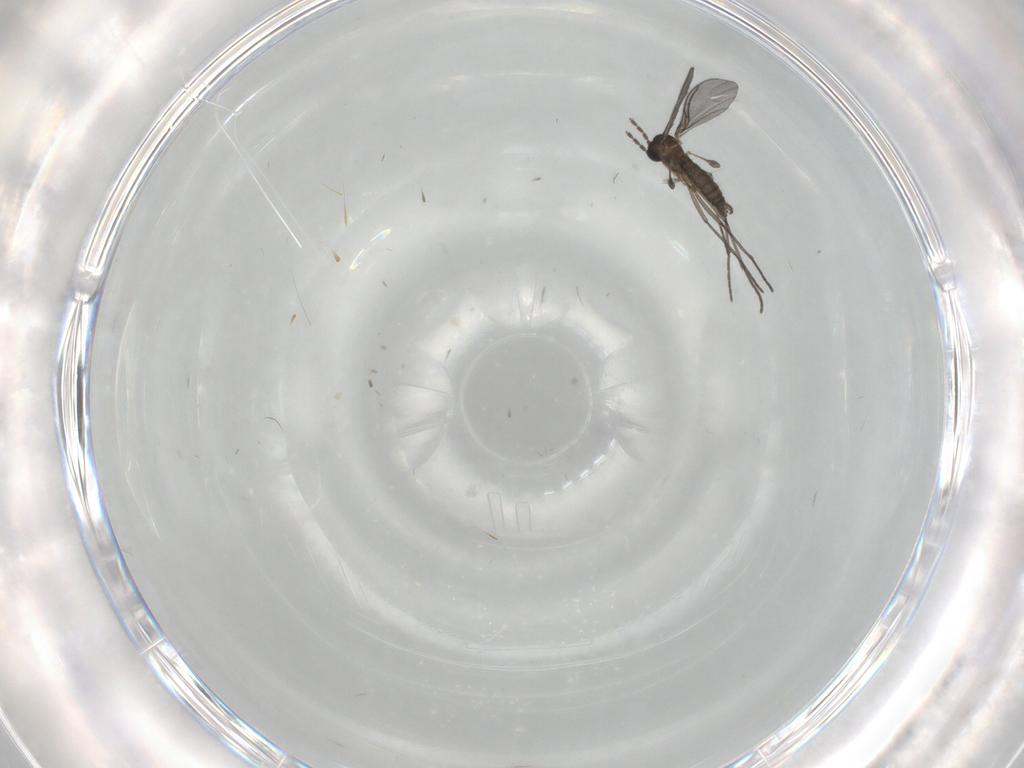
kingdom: Animalia
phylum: Arthropoda
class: Insecta
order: Diptera
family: Sciaridae
